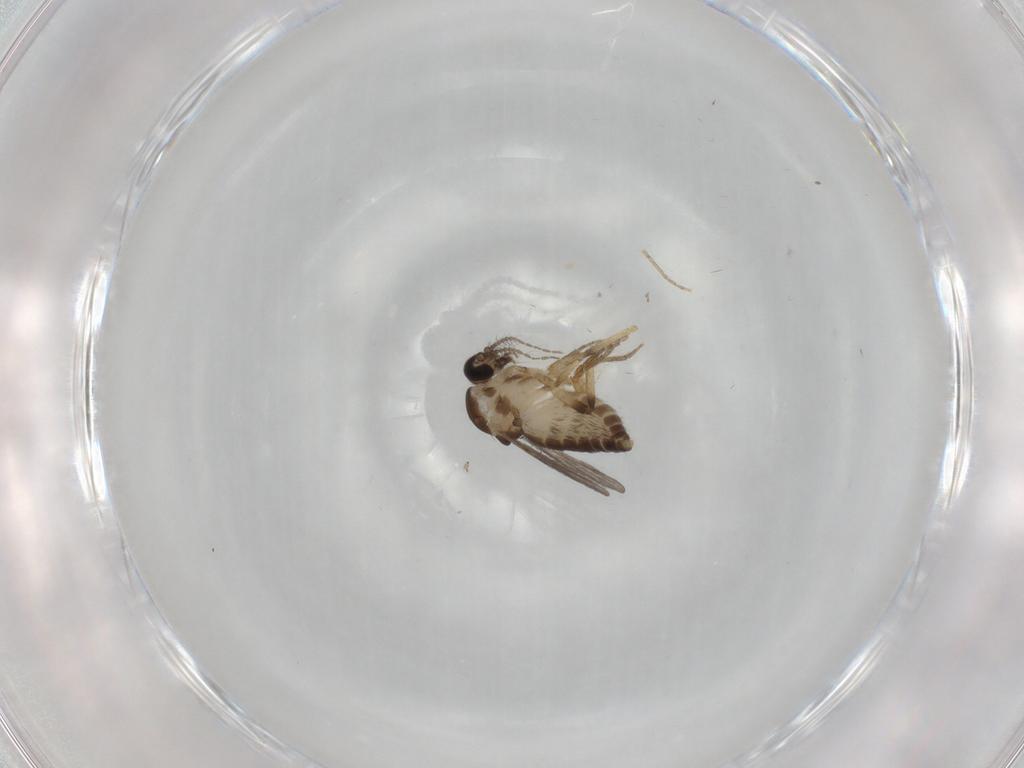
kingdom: Animalia
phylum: Arthropoda
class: Insecta
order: Diptera
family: Ceratopogonidae
